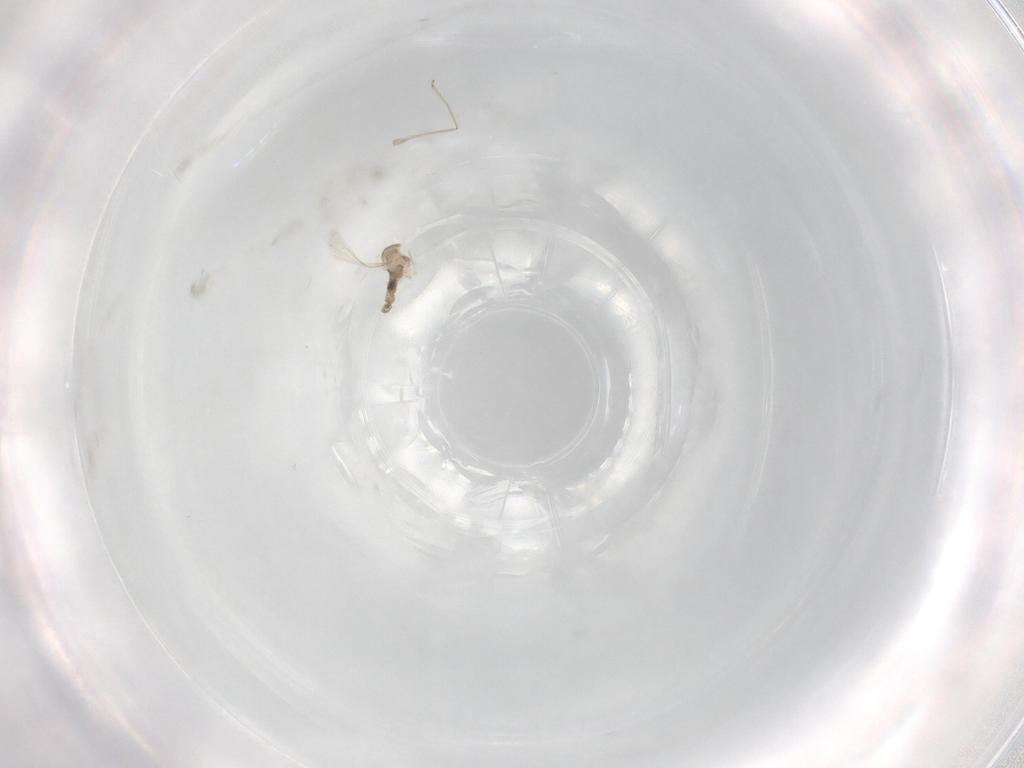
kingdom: Animalia
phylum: Arthropoda
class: Insecta
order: Diptera
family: Cecidomyiidae
